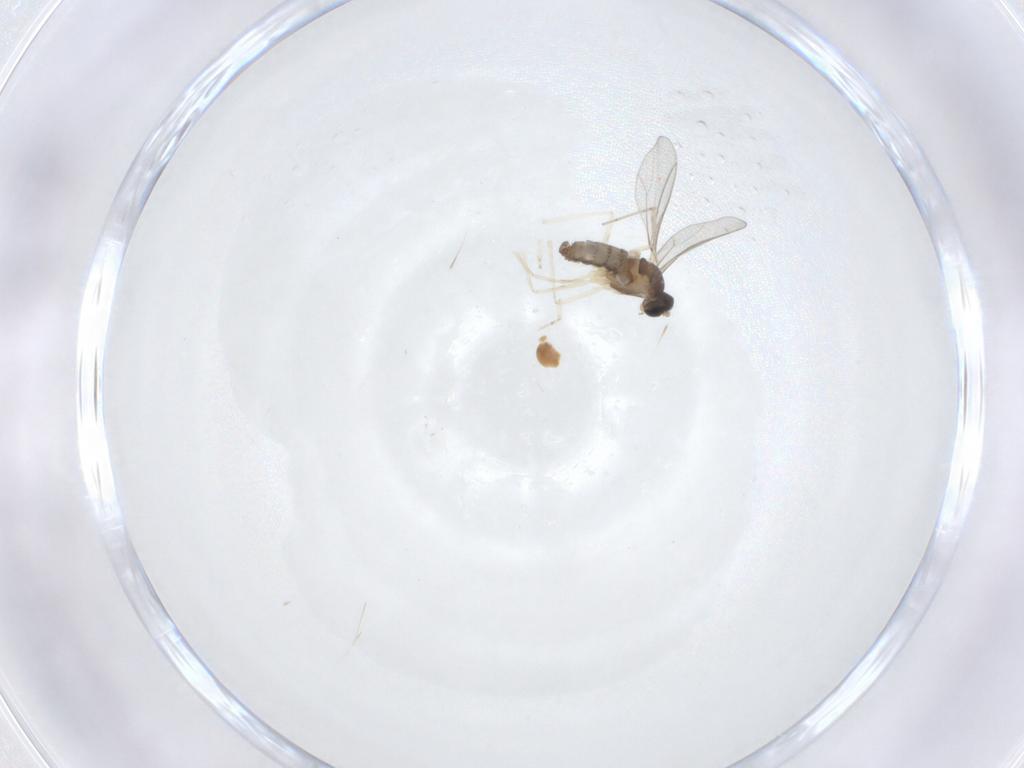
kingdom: Animalia
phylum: Arthropoda
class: Insecta
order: Diptera
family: Cecidomyiidae
